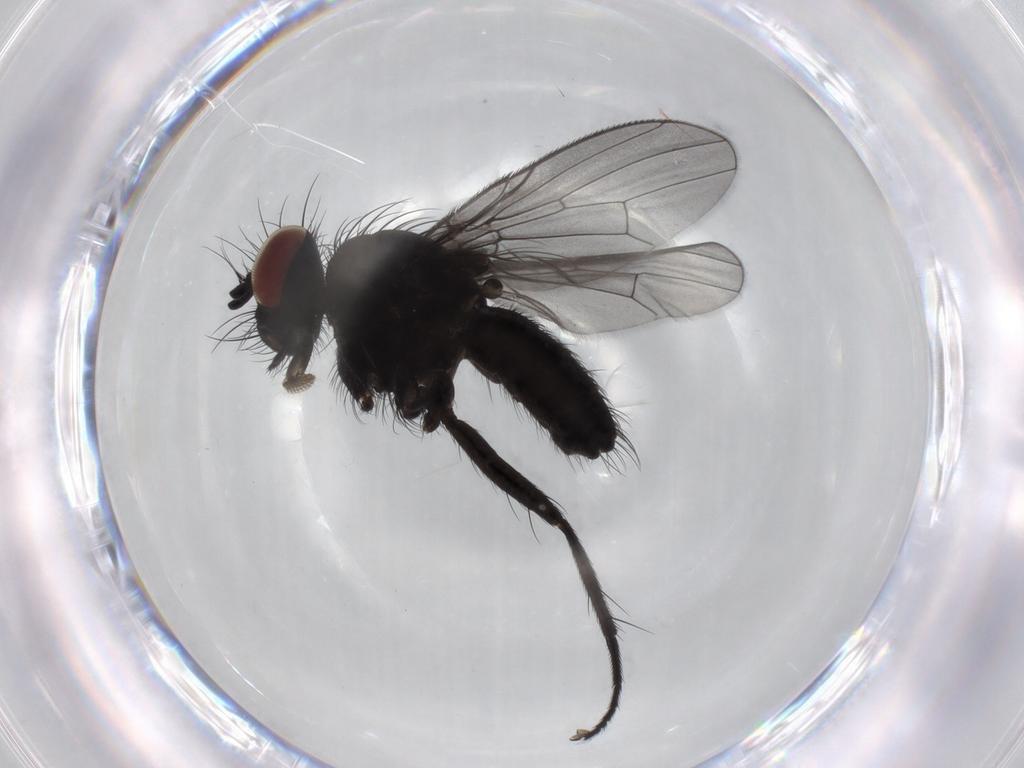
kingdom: Animalia
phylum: Arthropoda
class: Insecta
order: Diptera
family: Muscidae
